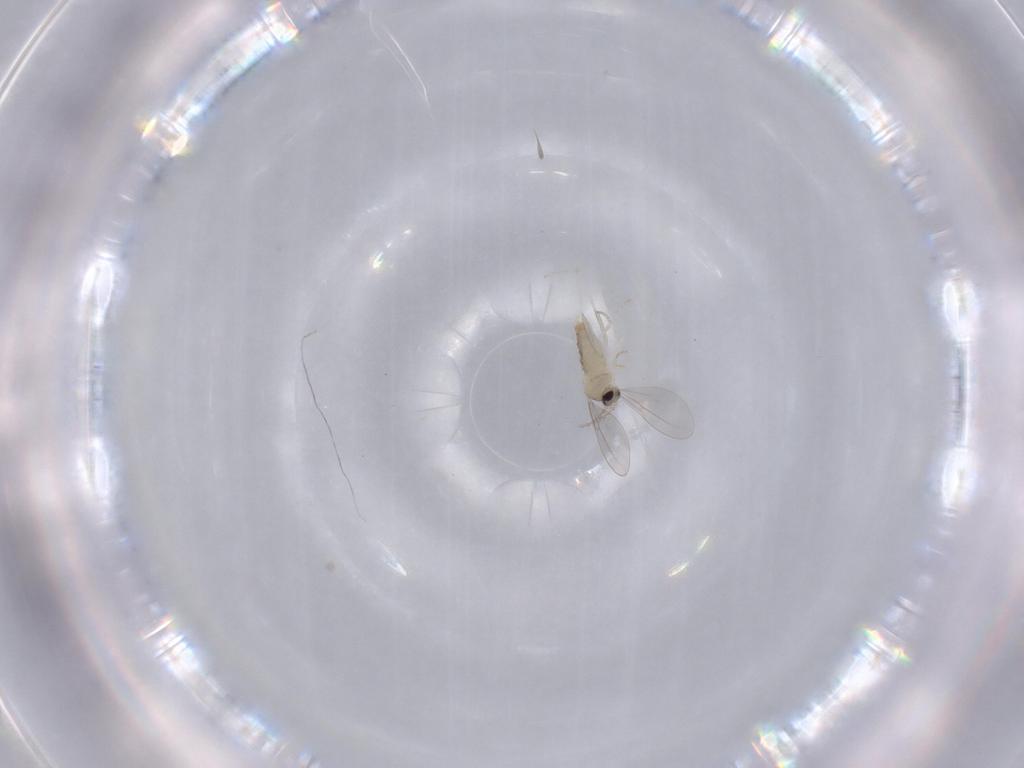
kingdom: Animalia
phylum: Arthropoda
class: Insecta
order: Diptera
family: Cecidomyiidae
